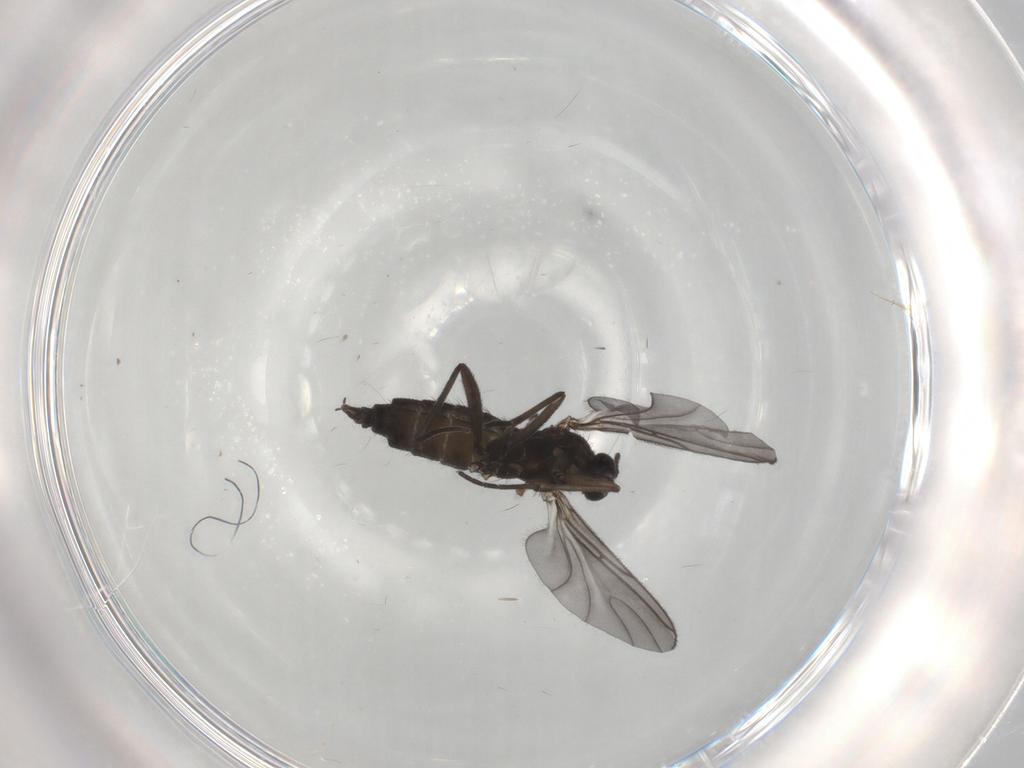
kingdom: Animalia
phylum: Arthropoda
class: Insecta
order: Diptera
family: Sciaridae
